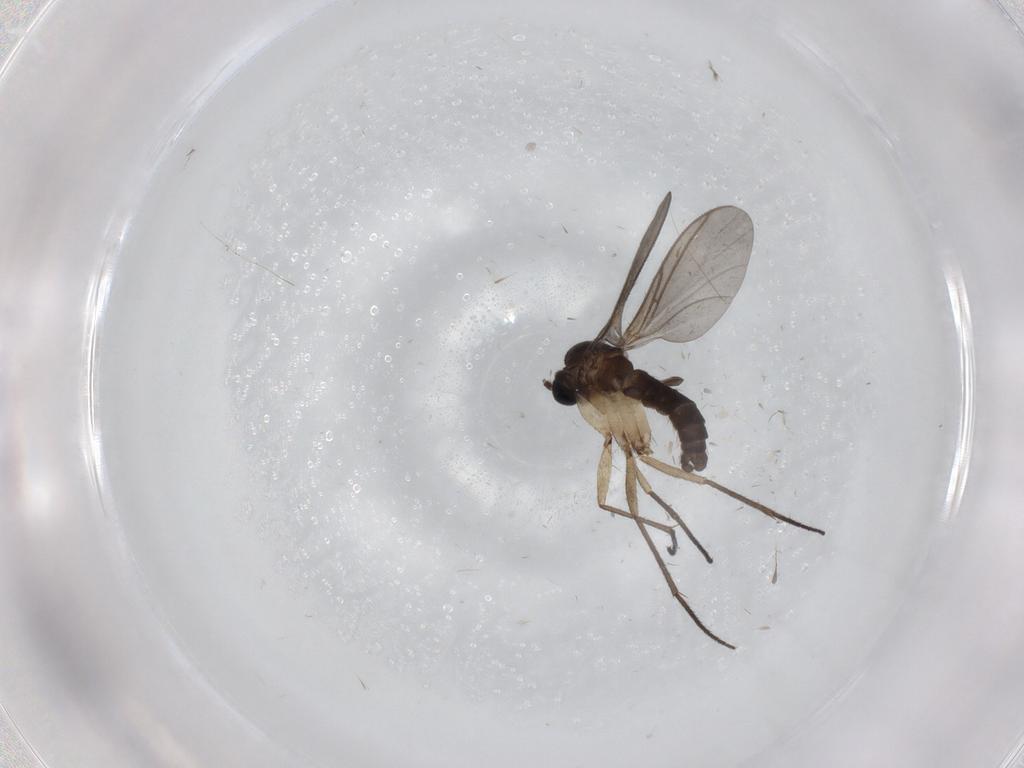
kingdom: Animalia
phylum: Arthropoda
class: Insecta
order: Diptera
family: Sciaridae
